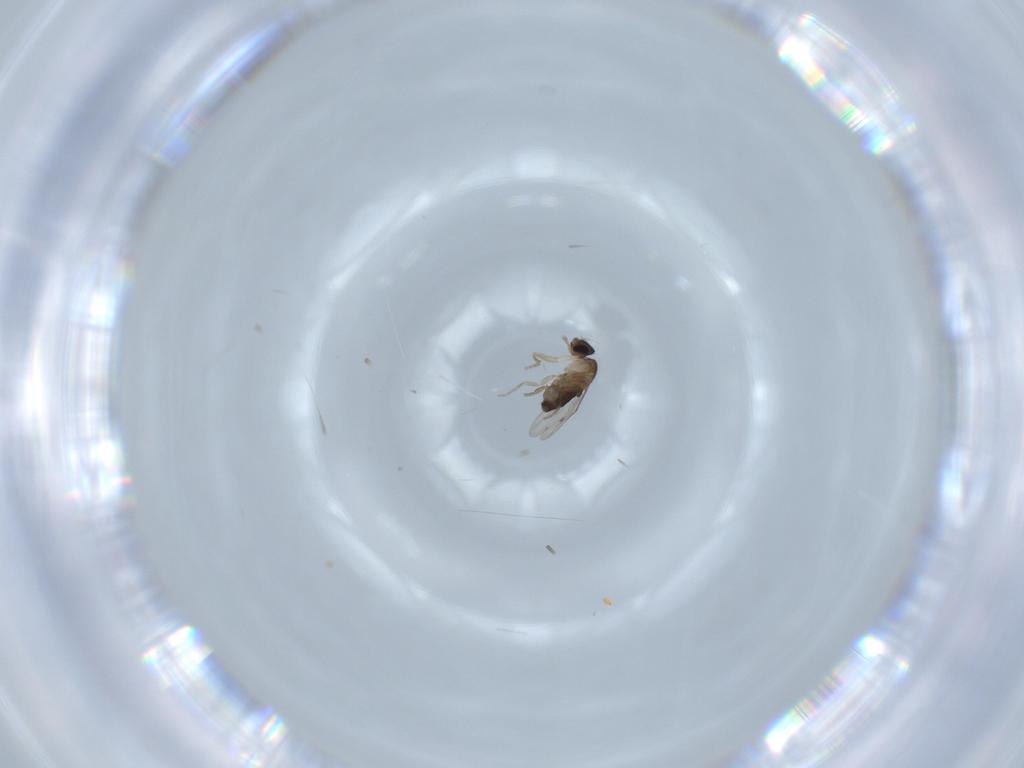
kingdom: Animalia
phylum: Arthropoda
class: Insecta
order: Diptera
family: Phoridae
